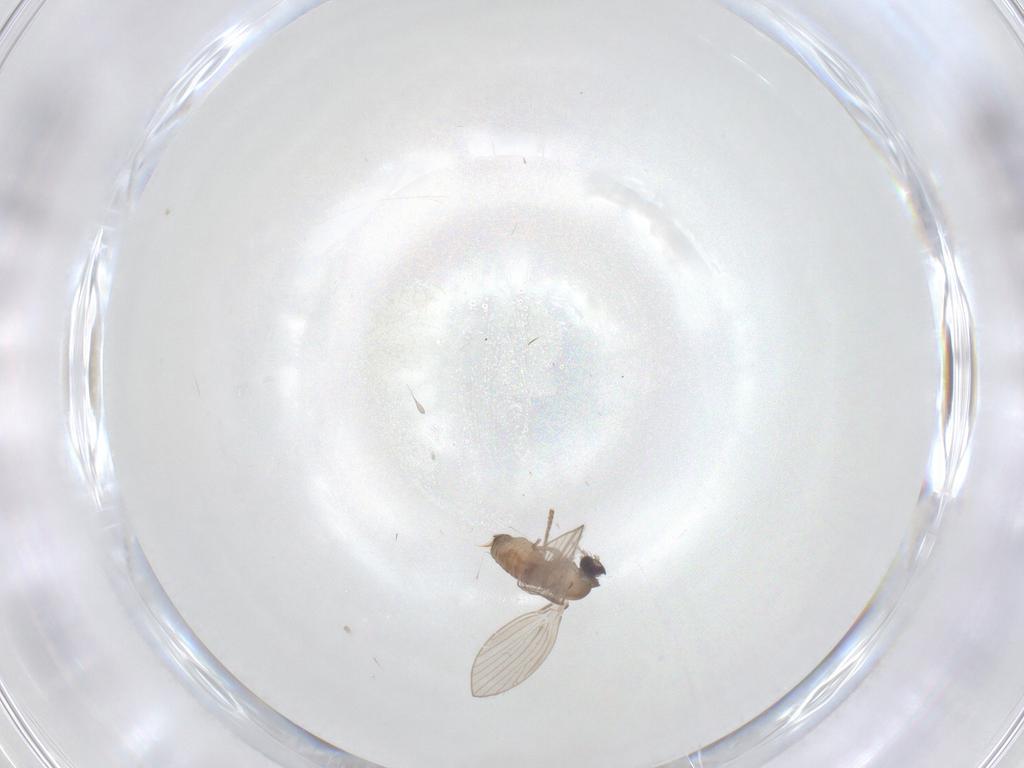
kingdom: Animalia
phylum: Arthropoda
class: Insecta
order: Diptera
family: Psychodidae
